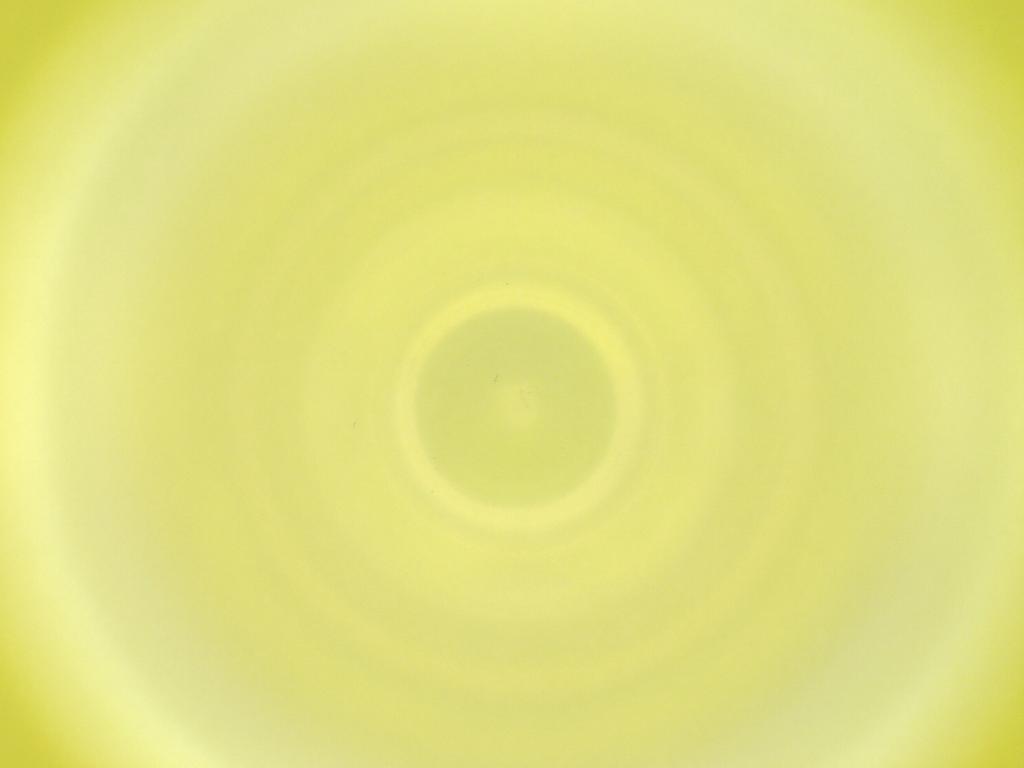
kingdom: Animalia
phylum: Arthropoda
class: Insecta
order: Diptera
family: Cecidomyiidae
